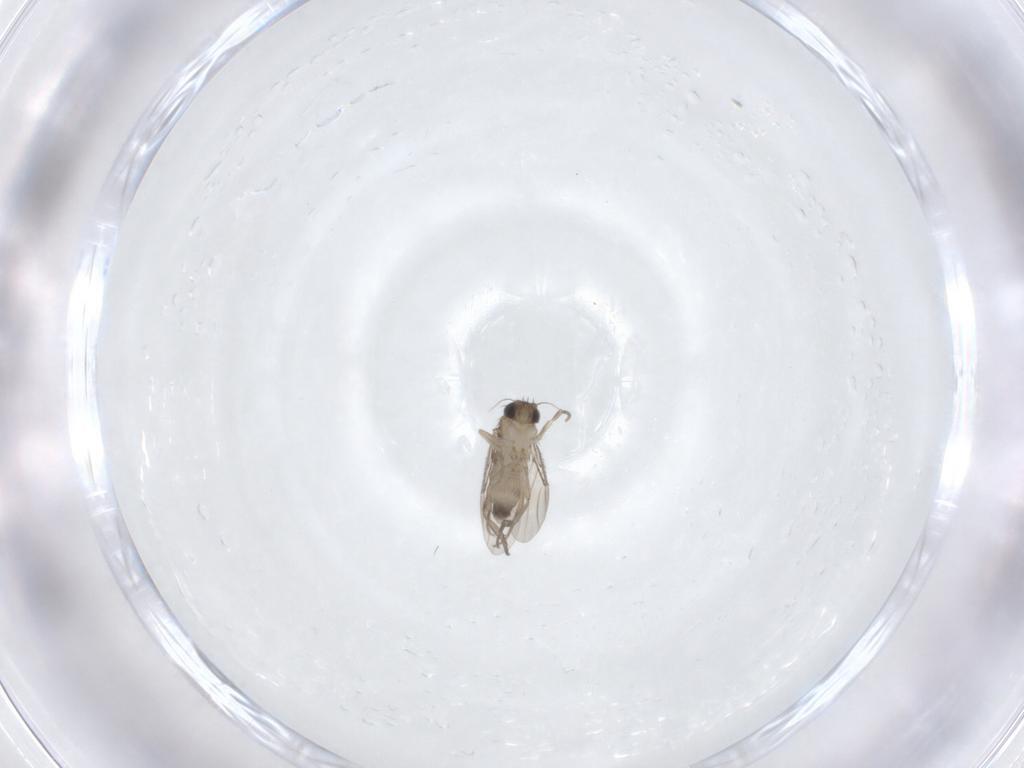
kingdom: Animalia
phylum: Arthropoda
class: Insecta
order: Diptera
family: Phoridae
